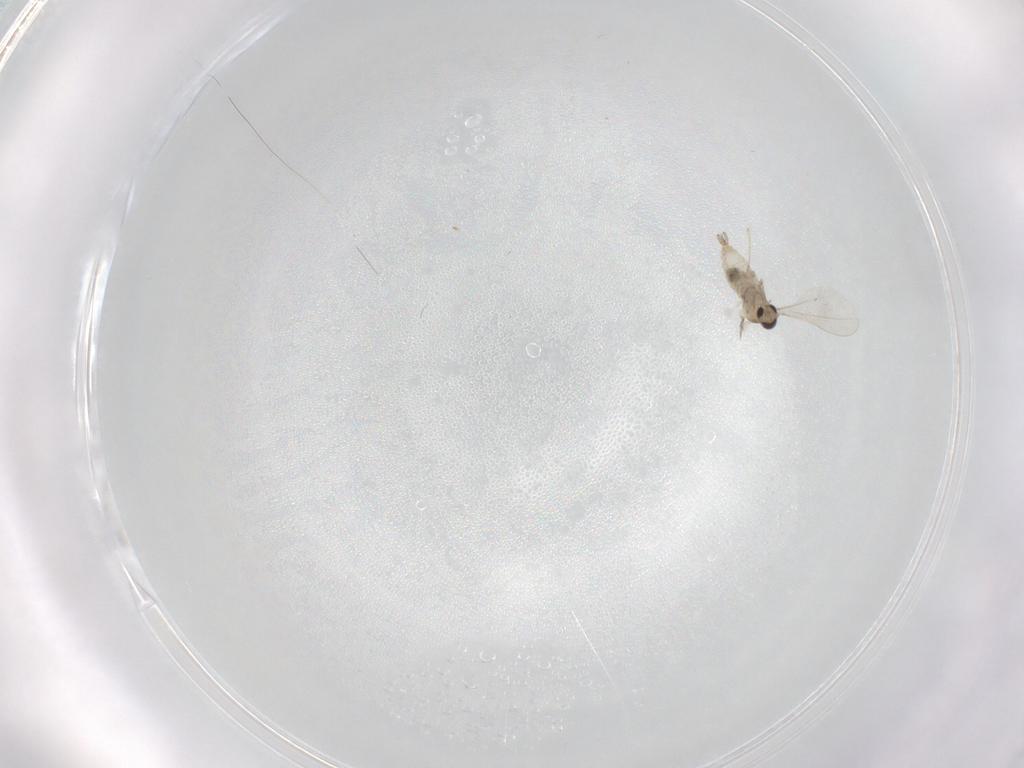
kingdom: Animalia
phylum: Arthropoda
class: Insecta
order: Diptera
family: Cecidomyiidae
